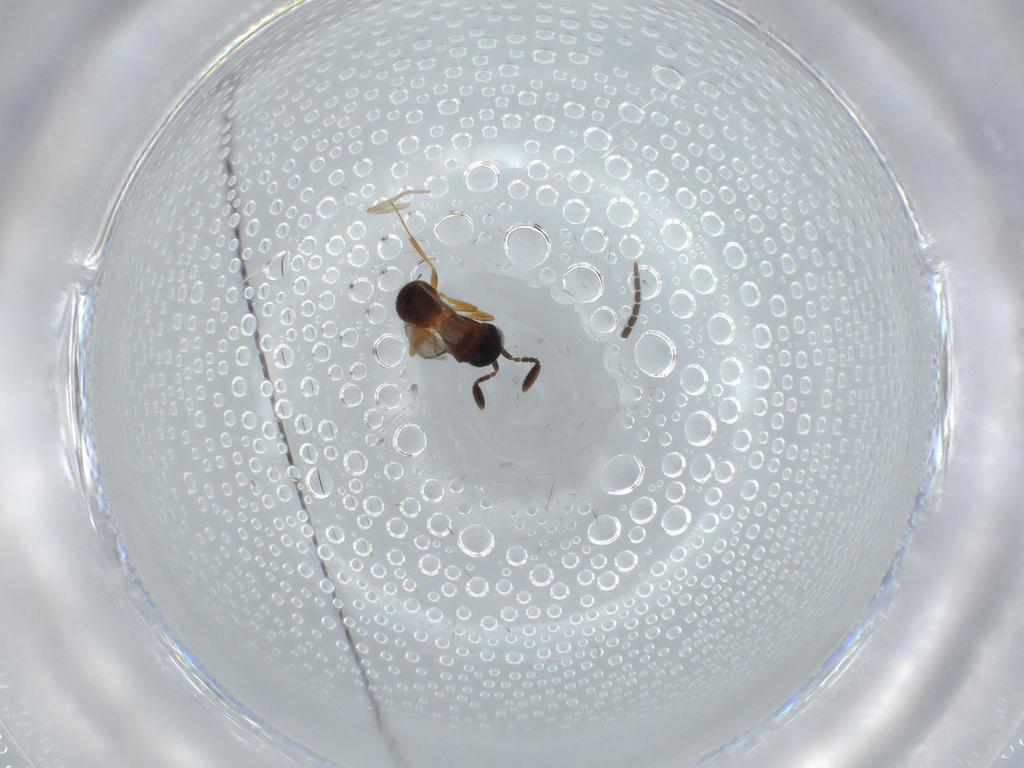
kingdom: Animalia
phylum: Arthropoda
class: Insecta
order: Hymenoptera
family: Scelionidae
